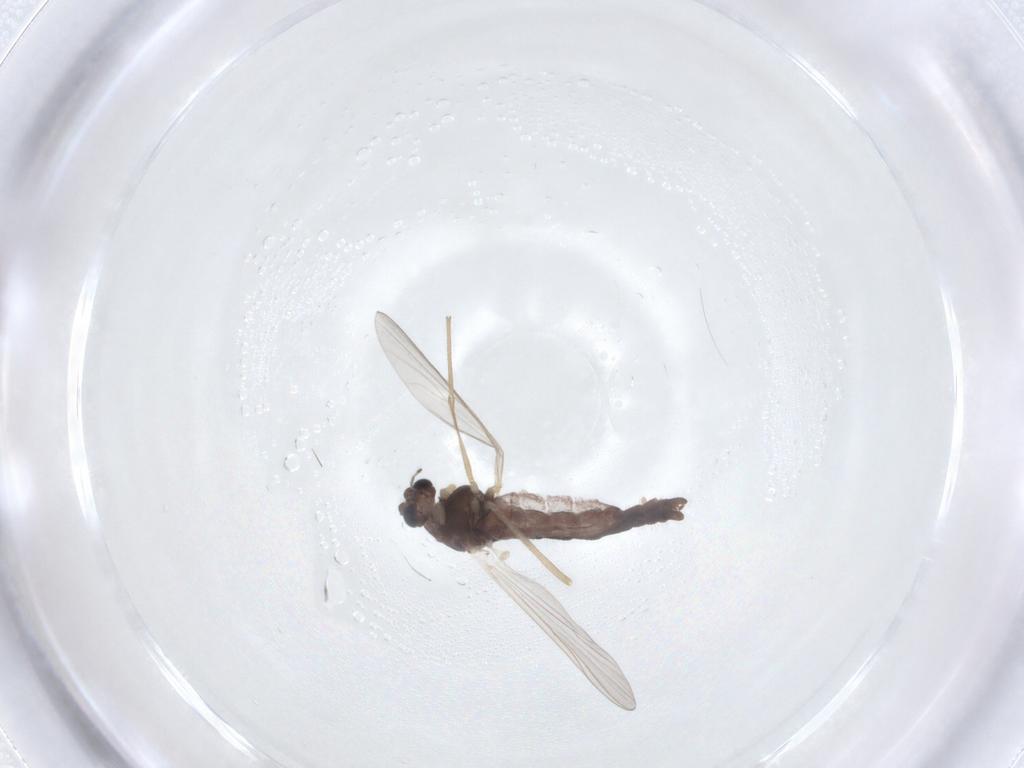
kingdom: Animalia
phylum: Arthropoda
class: Insecta
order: Diptera
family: Chironomidae
